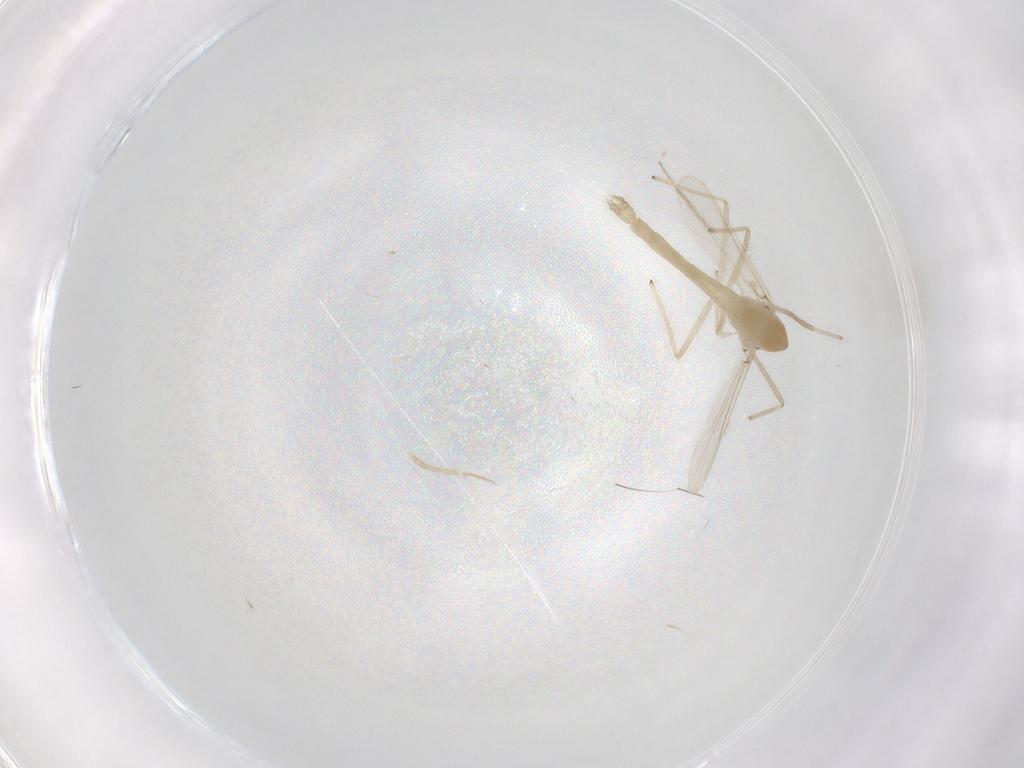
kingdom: Animalia
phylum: Arthropoda
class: Insecta
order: Diptera
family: Chironomidae
